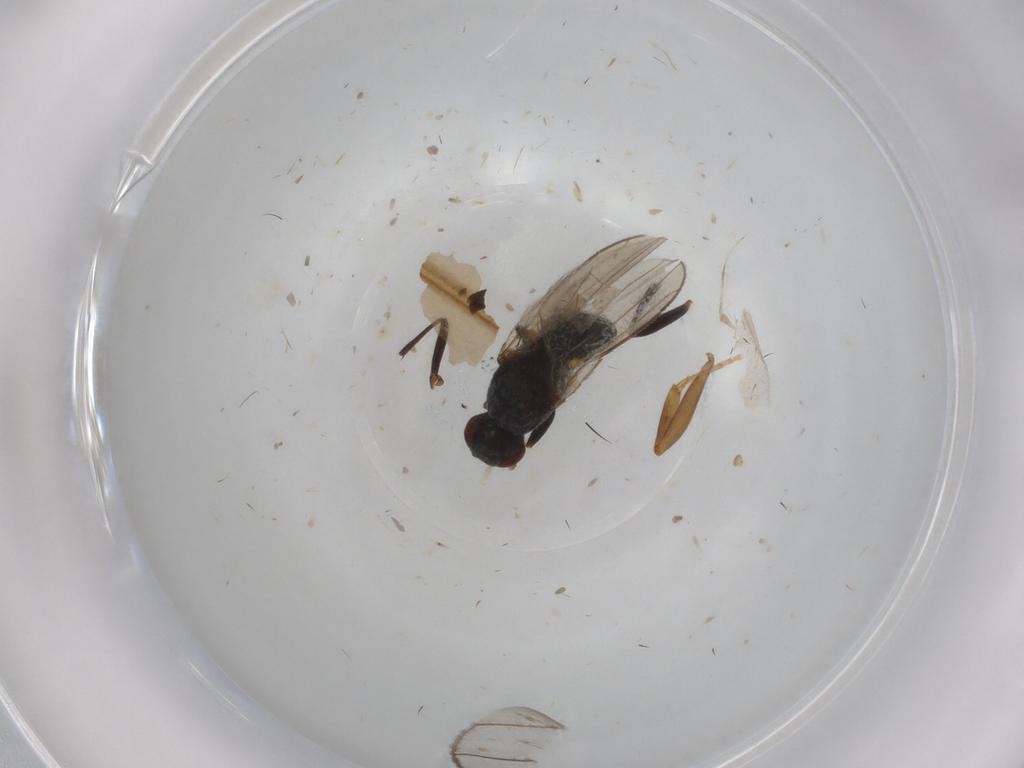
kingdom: Animalia
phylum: Arthropoda
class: Insecta
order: Diptera
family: Sphaeroceridae
